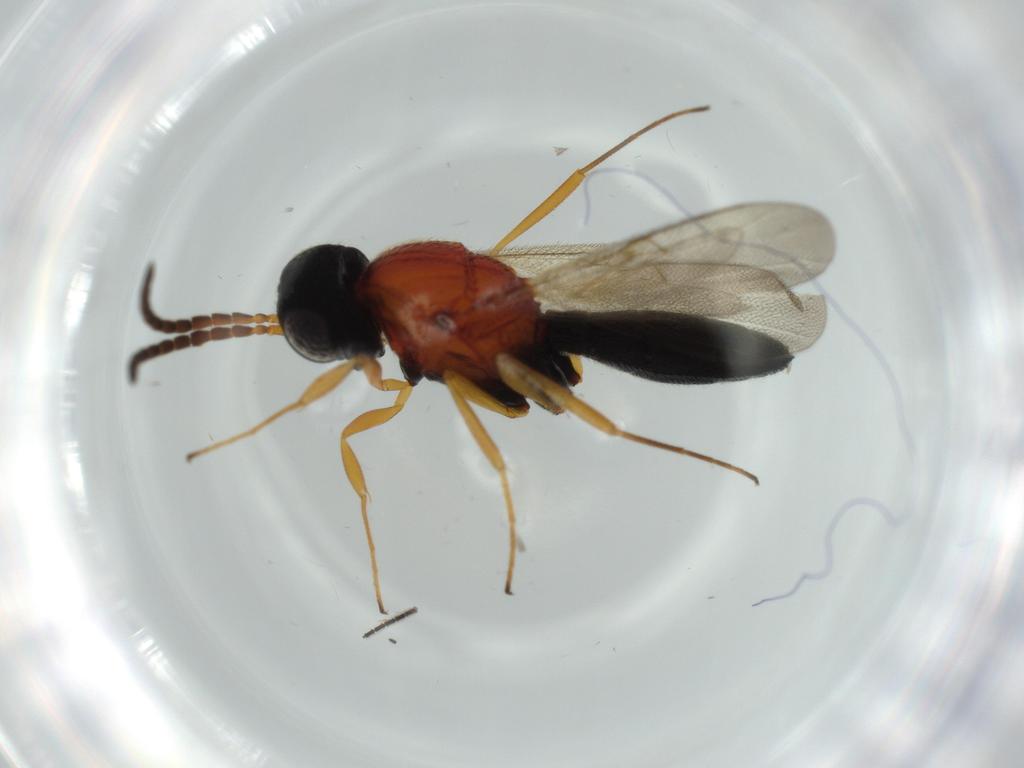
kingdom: Animalia
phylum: Arthropoda
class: Insecta
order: Hymenoptera
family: Scelionidae
